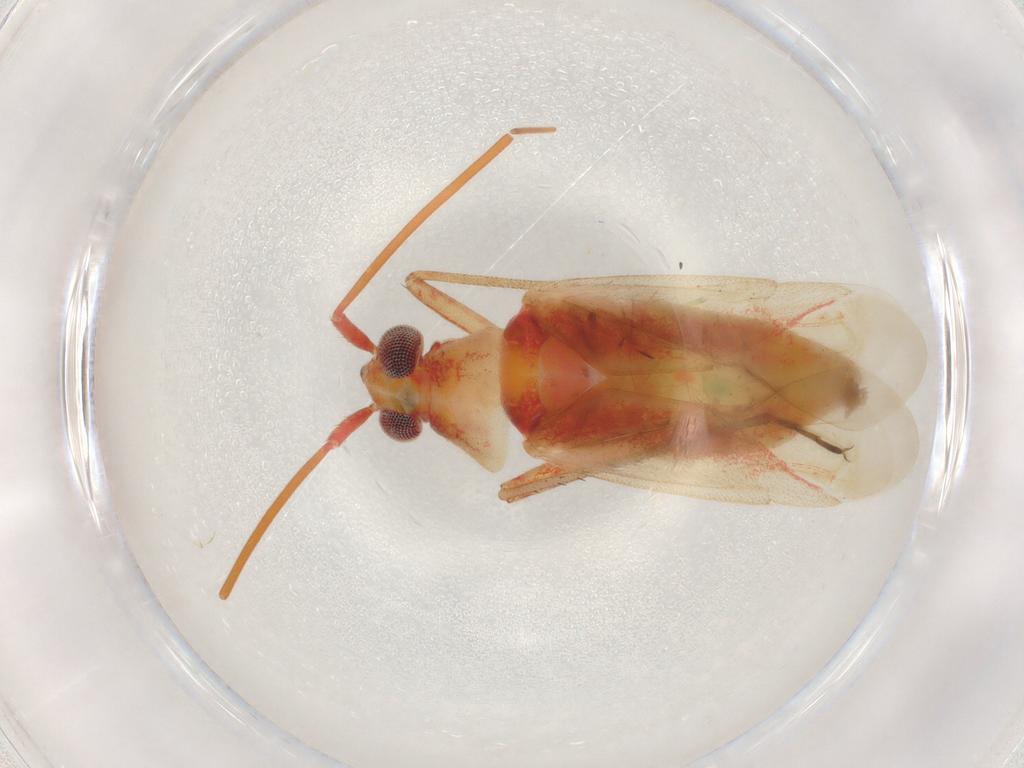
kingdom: Animalia
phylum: Arthropoda
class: Insecta
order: Hemiptera
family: Miridae
